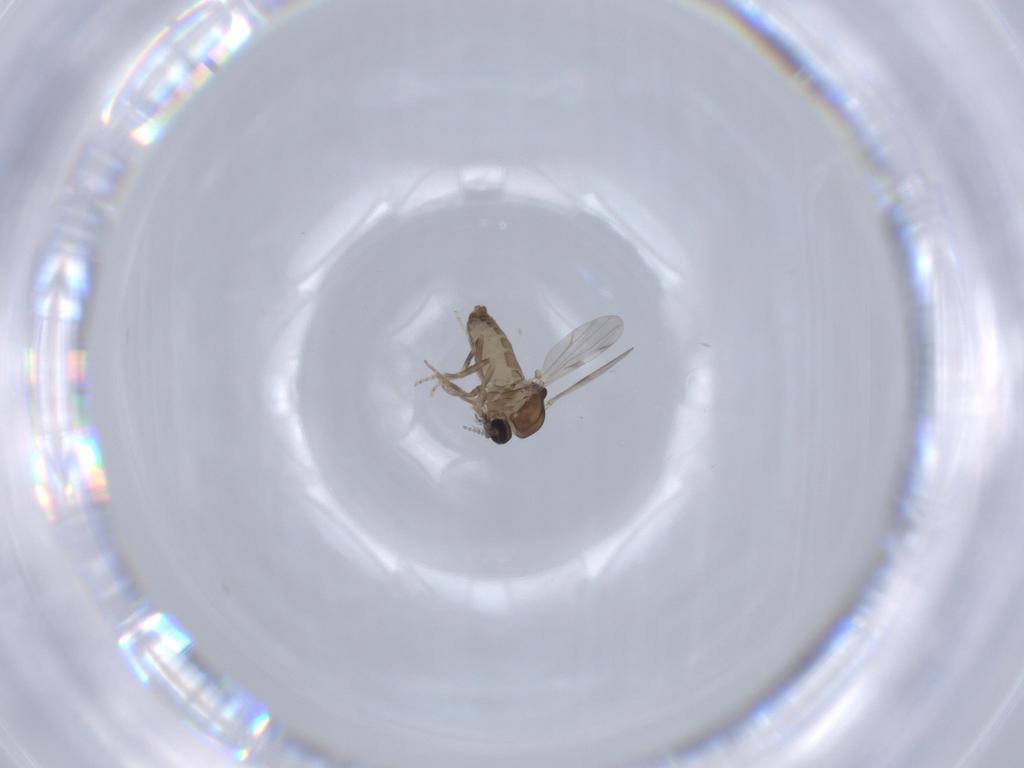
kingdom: Animalia
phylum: Arthropoda
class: Insecta
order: Diptera
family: Ceratopogonidae
